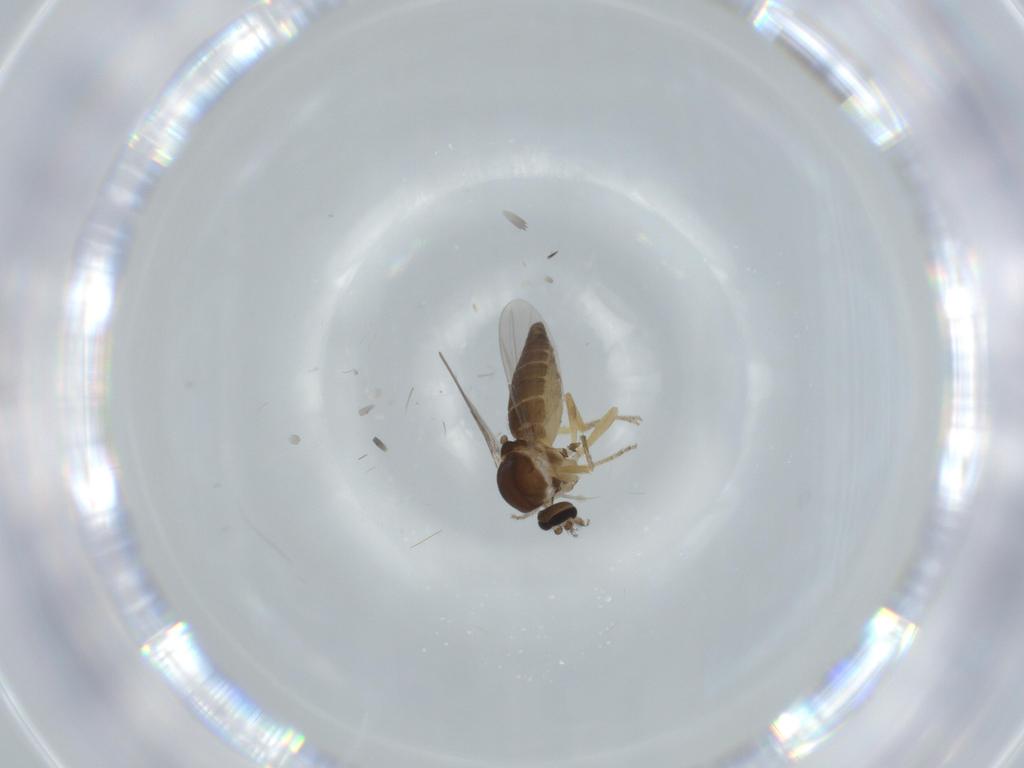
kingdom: Animalia
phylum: Arthropoda
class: Insecta
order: Diptera
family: Ceratopogonidae
